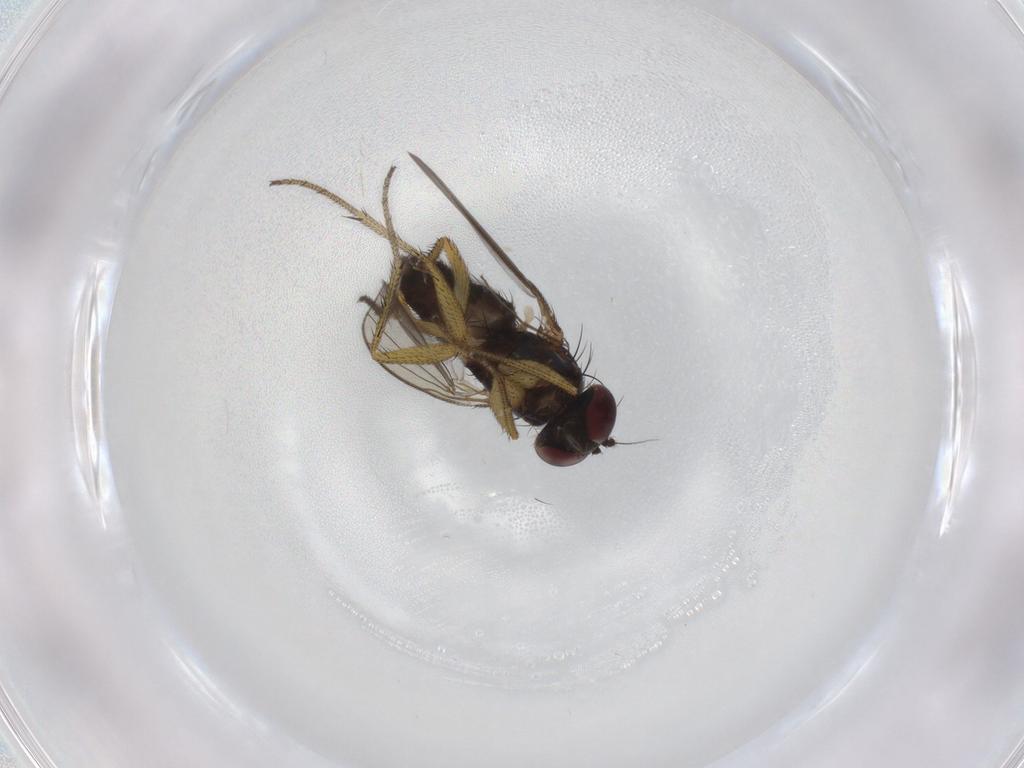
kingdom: Animalia
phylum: Arthropoda
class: Insecta
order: Diptera
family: Dolichopodidae
